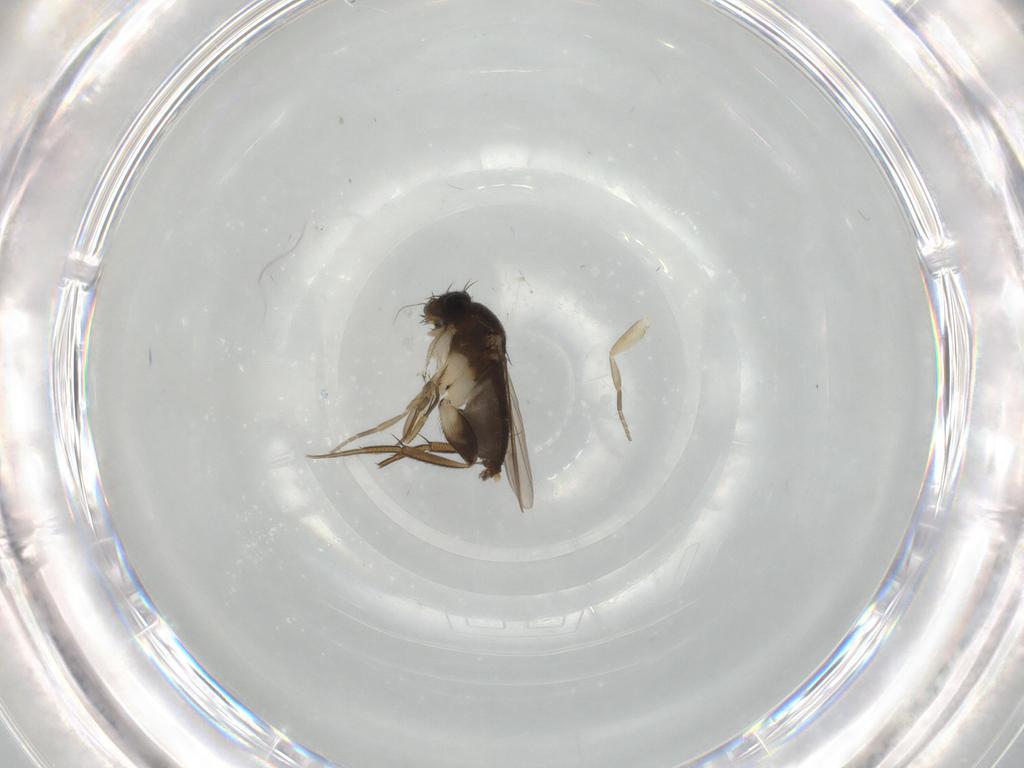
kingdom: Animalia
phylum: Arthropoda
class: Insecta
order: Diptera
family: Phoridae
